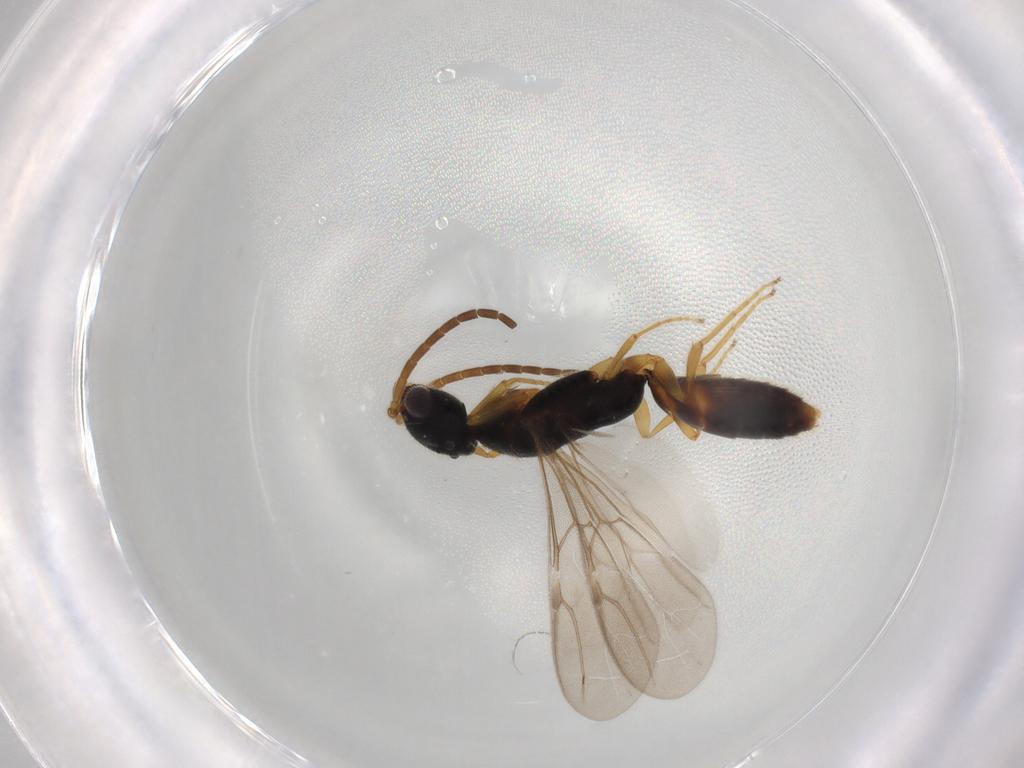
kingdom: Animalia
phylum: Arthropoda
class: Insecta
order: Hymenoptera
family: Bethylidae
